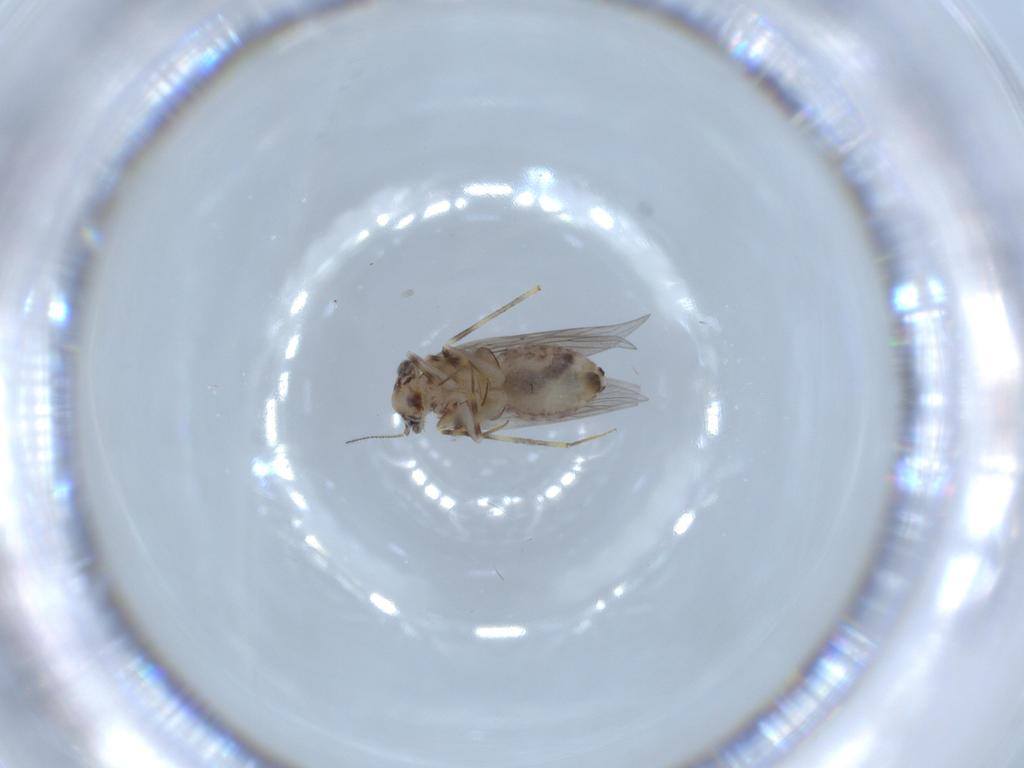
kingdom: Animalia
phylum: Arthropoda
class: Insecta
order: Psocodea
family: Lepidopsocidae
